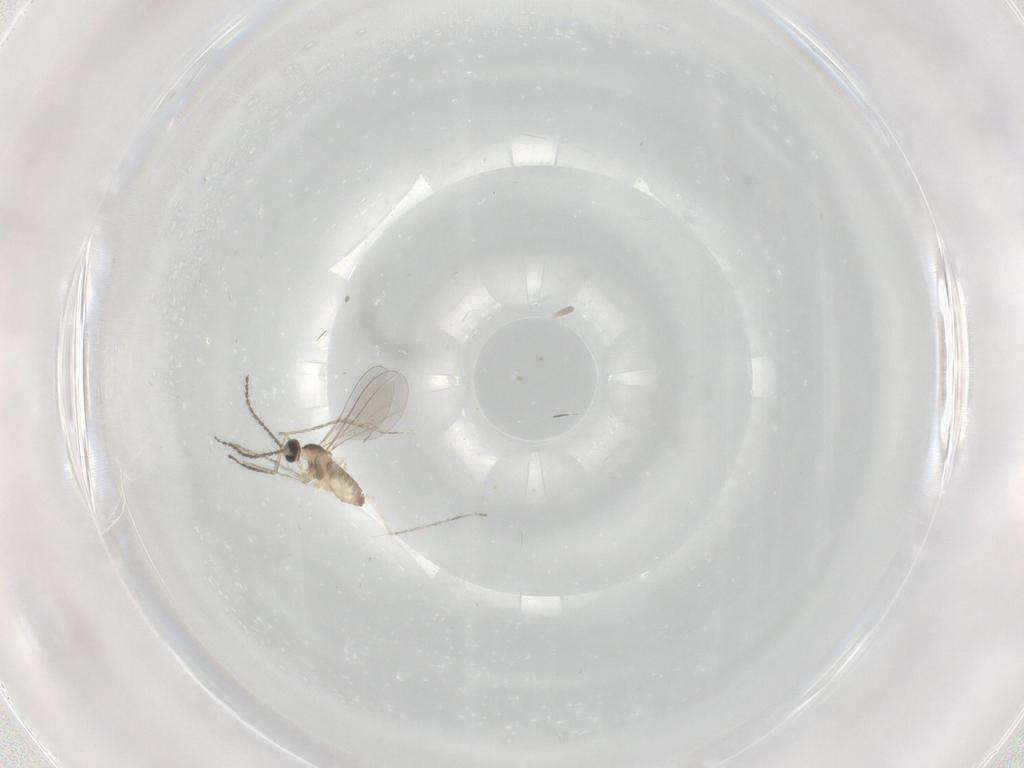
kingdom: Animalia
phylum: Arthropoda
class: Insecta
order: Diptera
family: Cecidomyiidae
